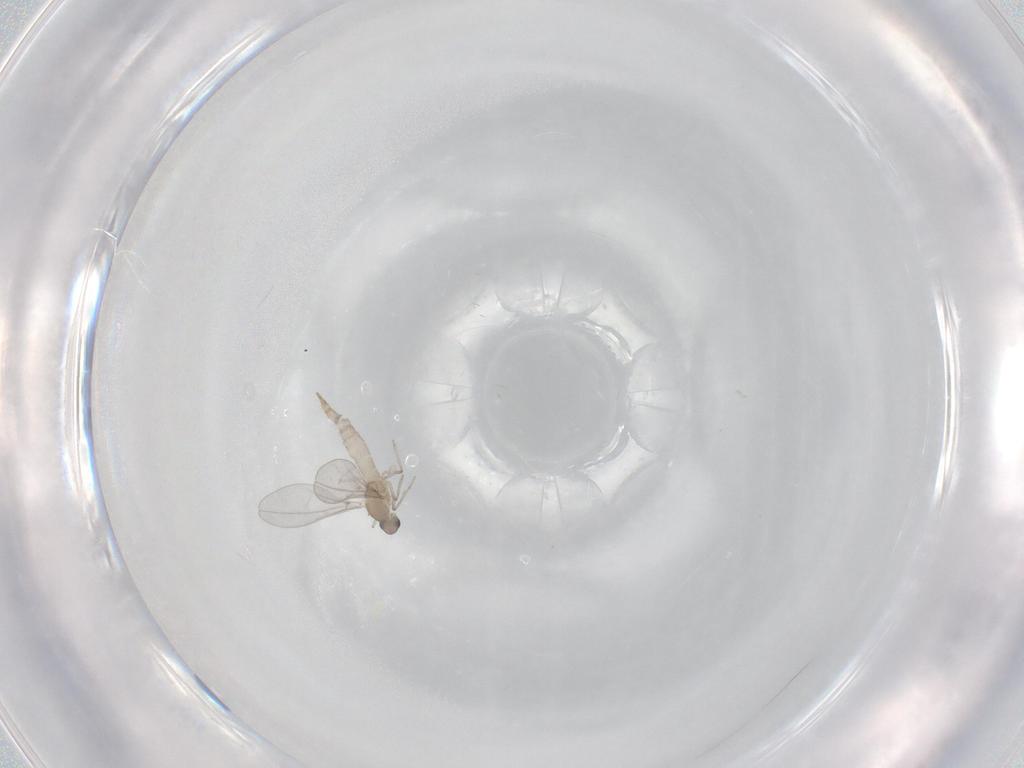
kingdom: Animalia
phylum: Arthropoda
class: Insecta
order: Diptera
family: Cecidomyiidae
